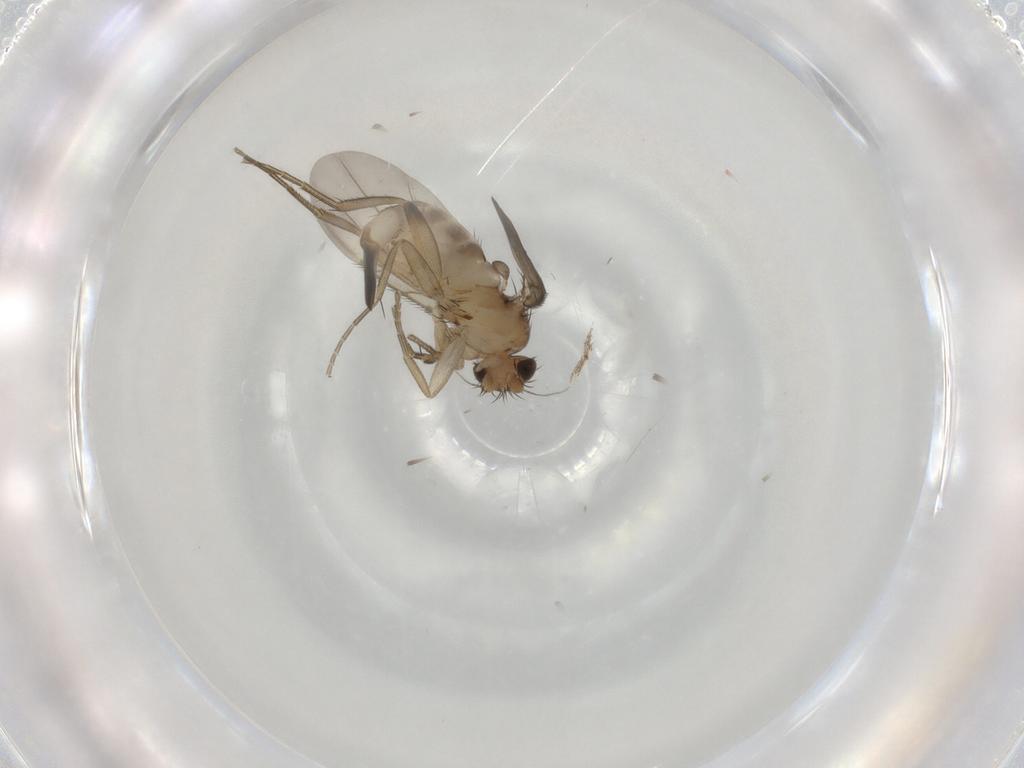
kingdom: Animalia
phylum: Arthropoda
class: Insecta
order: Diptera
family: Phoridae
